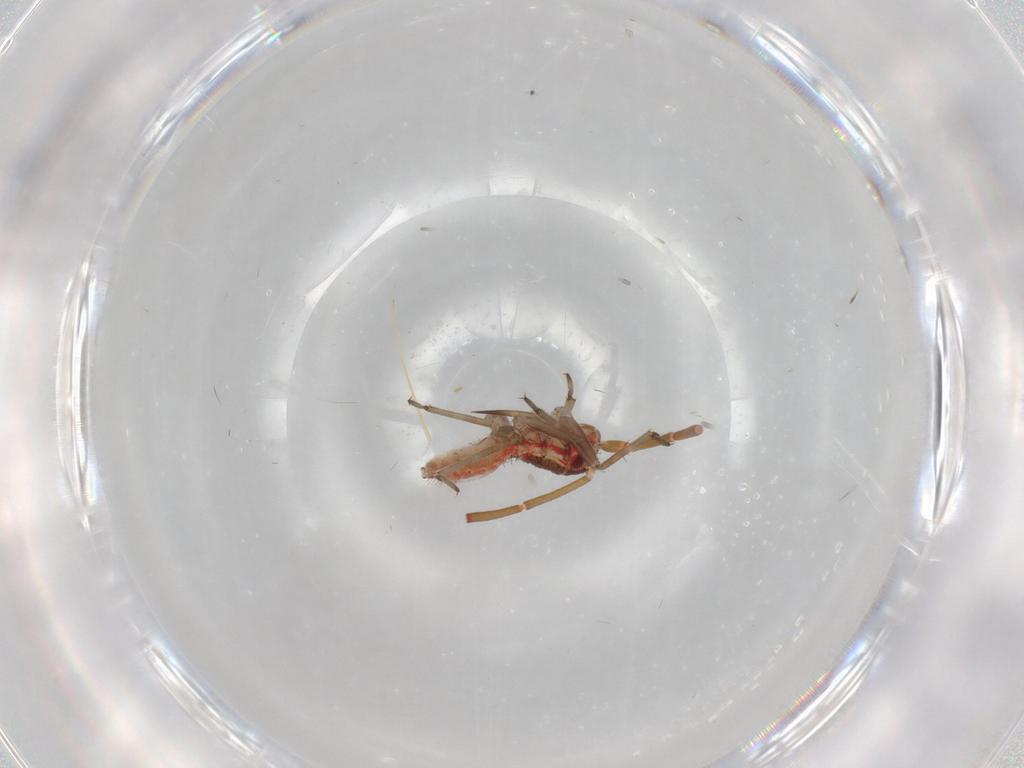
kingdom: Animalia
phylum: Arthropoda
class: Insecta
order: Hemiptera
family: Miridae
